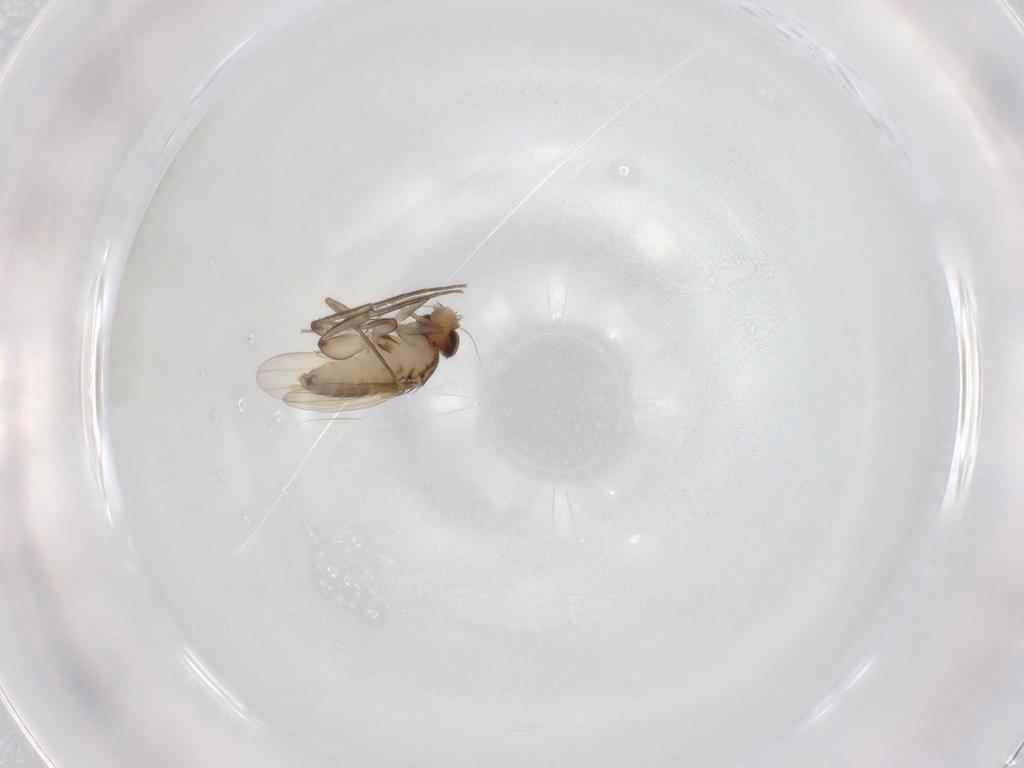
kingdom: Animalia
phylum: Arthropoda
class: Insecta
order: Diptera
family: Phoridae
